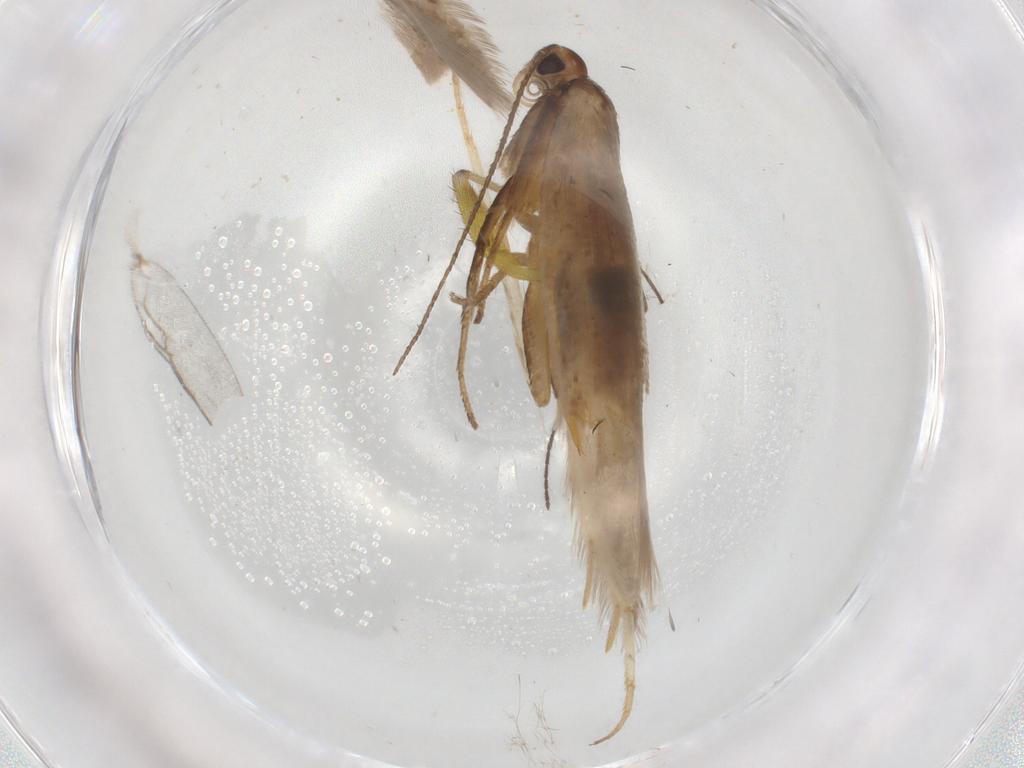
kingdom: Animalia
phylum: Arthropoda
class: Insecta
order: Lepidoptera
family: Gelechiidae
